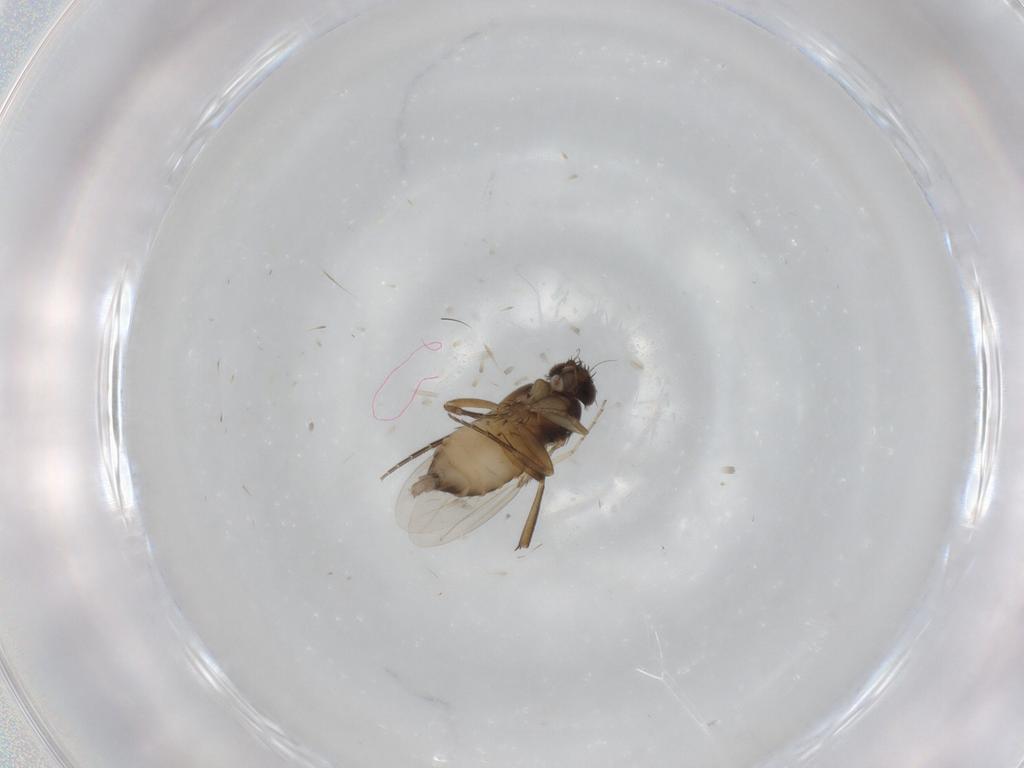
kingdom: Animalia
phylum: Arthropoda
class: Insecta
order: Diptera
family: Phoridae
